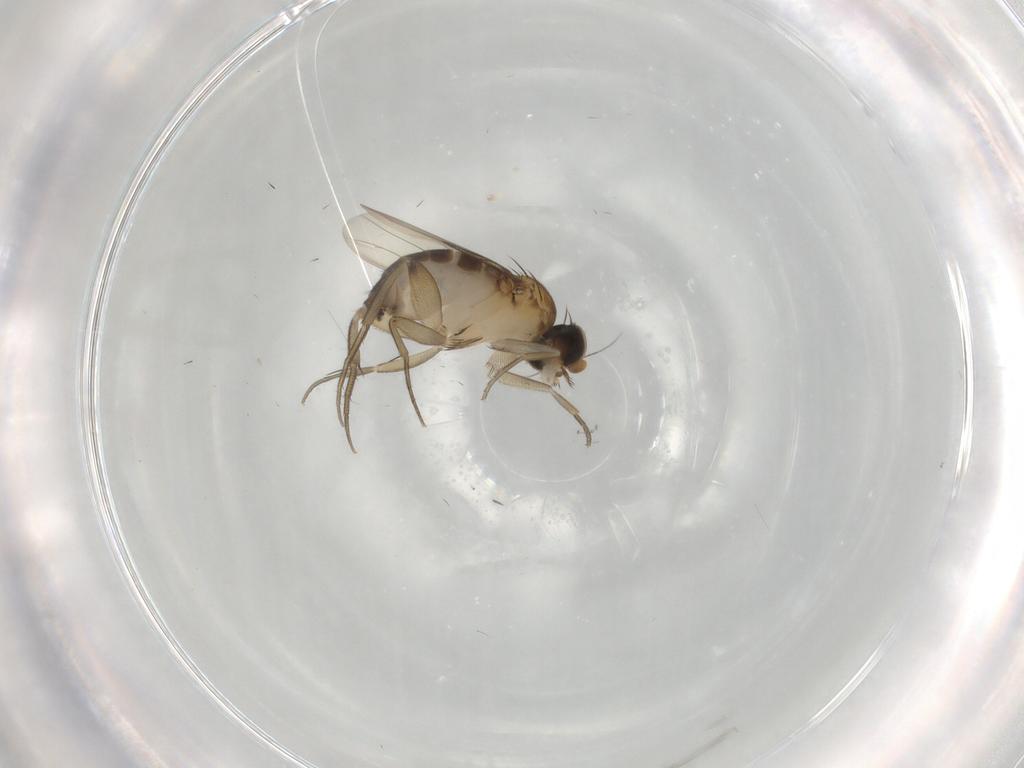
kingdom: Animalia
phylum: Arthropoda
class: Insecta
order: Diptera
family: Phoridae
